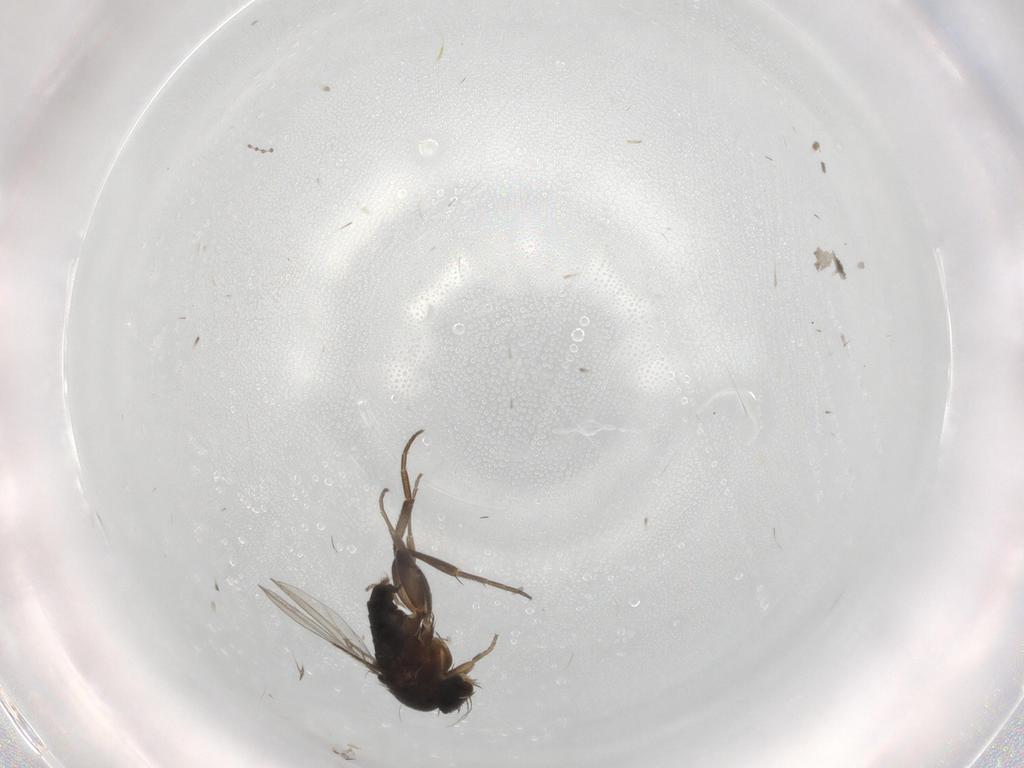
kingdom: Animalia
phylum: Arthropoda
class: Insecta
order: Diptera
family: Phoridae
